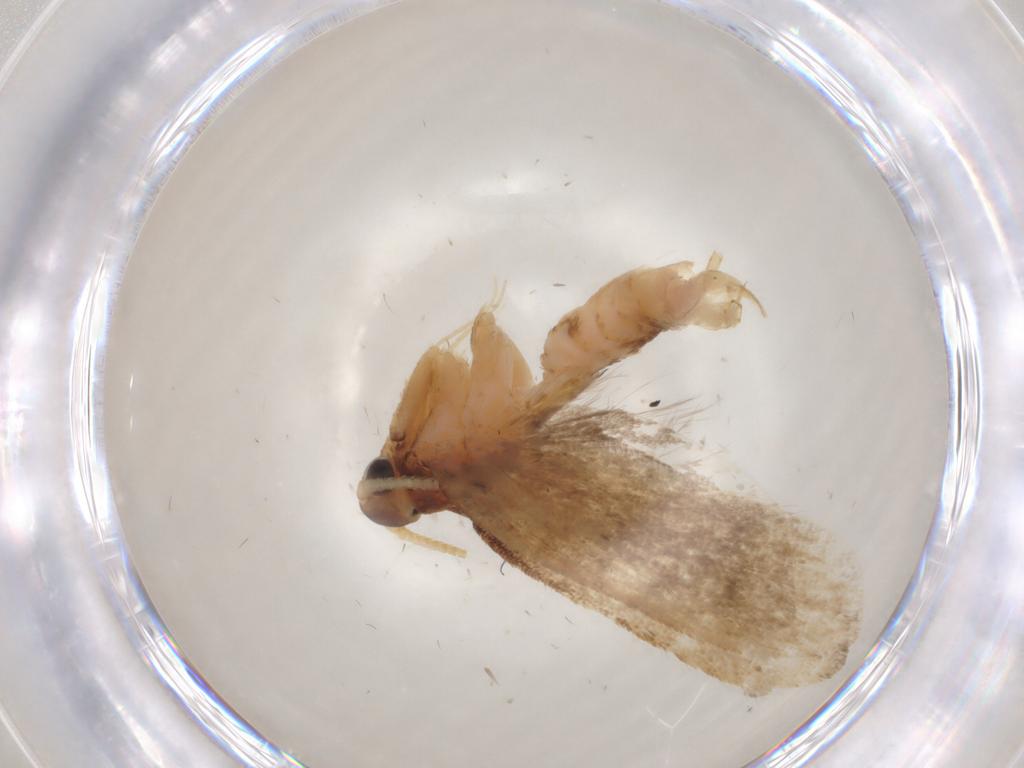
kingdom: Animalia
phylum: Arthropoda
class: Insecta
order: Lepidoptera
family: Lecithoceridae
